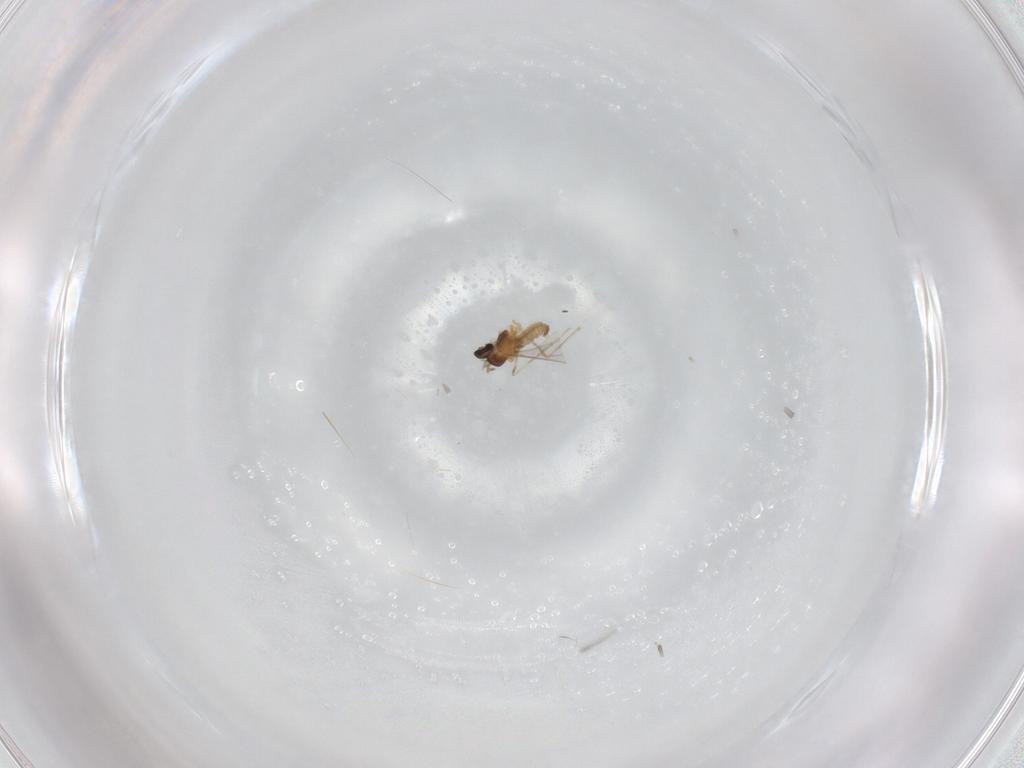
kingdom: Animalia
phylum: Arthropoda
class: Insecta
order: Diptera
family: Cecidomyiidae
